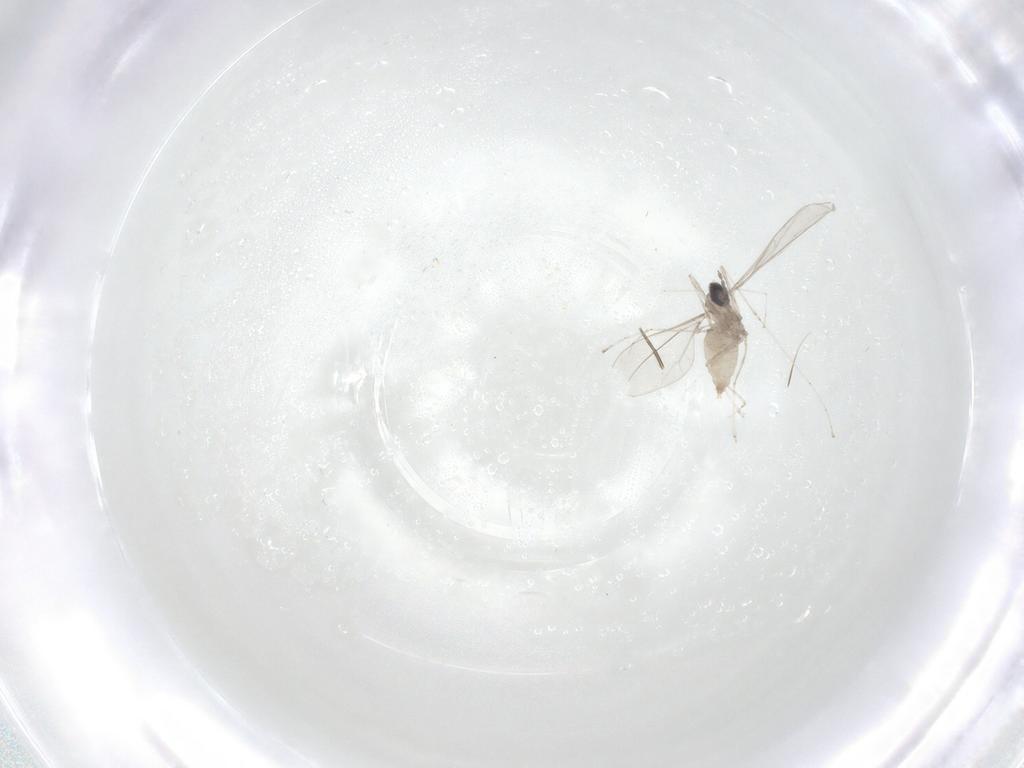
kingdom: Animalia
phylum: Arthropoda
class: Insecta
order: Diptera
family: Cecidomyiidae
